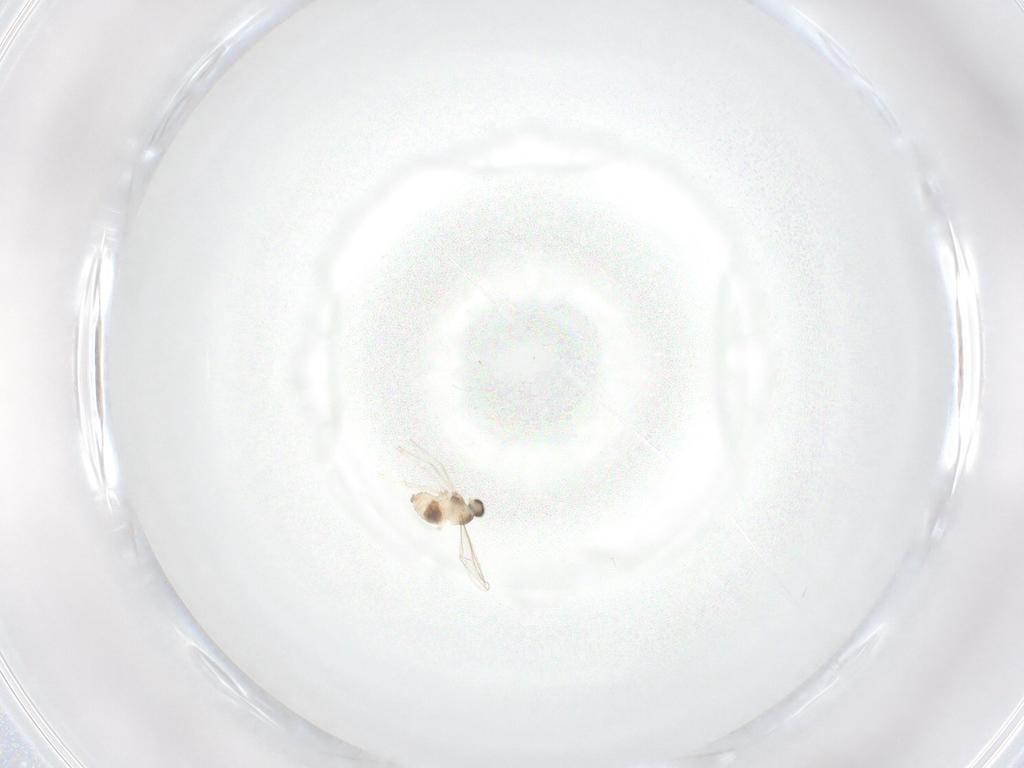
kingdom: Animalia
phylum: Arthropoda
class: Insecta
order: Diptera
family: Cecidomyiidae
